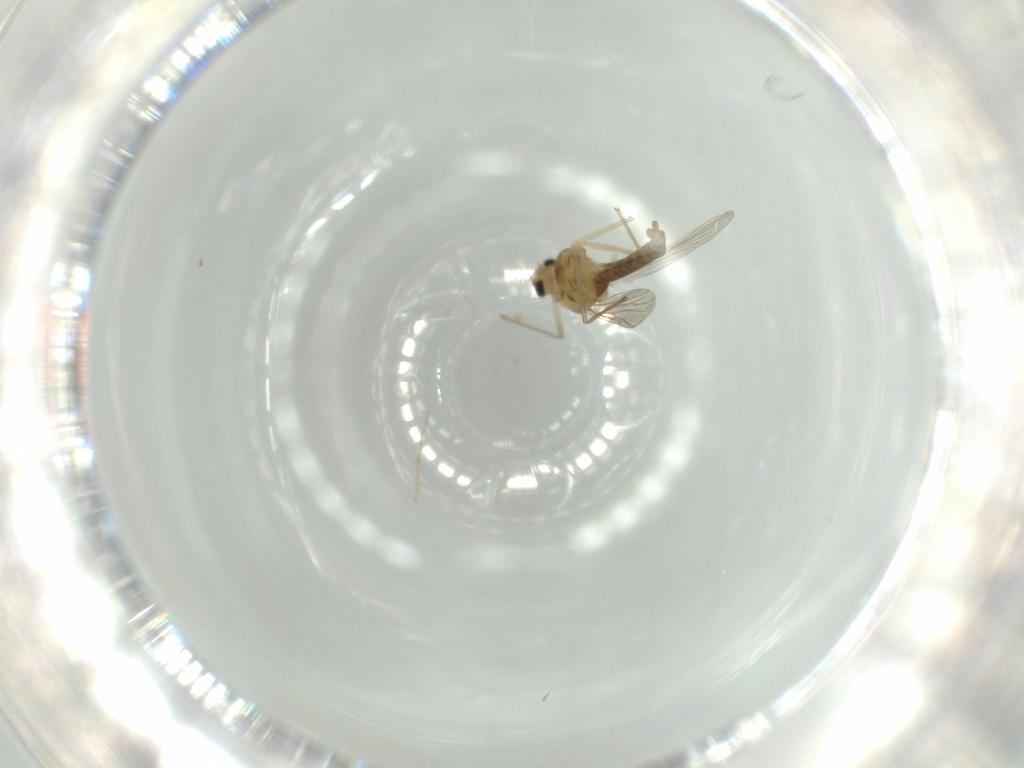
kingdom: Animalia
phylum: Arthropoda
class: Insecta
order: Diptera
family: Chironomidae
